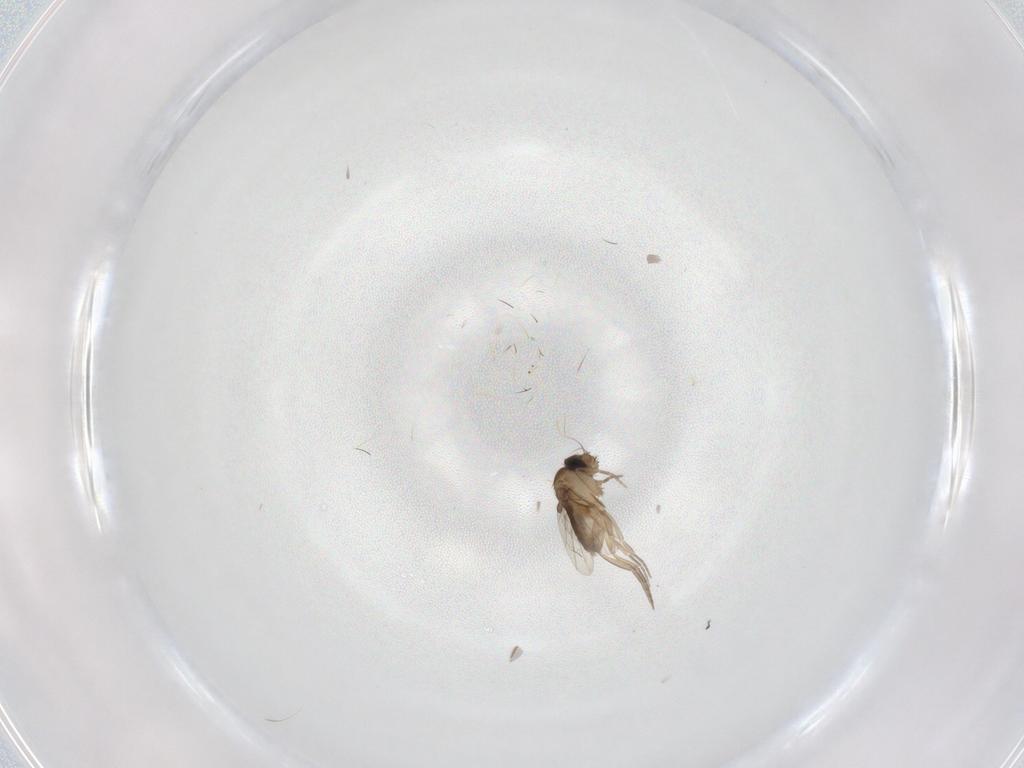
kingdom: Animalia
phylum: Arthropoda
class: Insecta
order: Diptera
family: Phoridae
